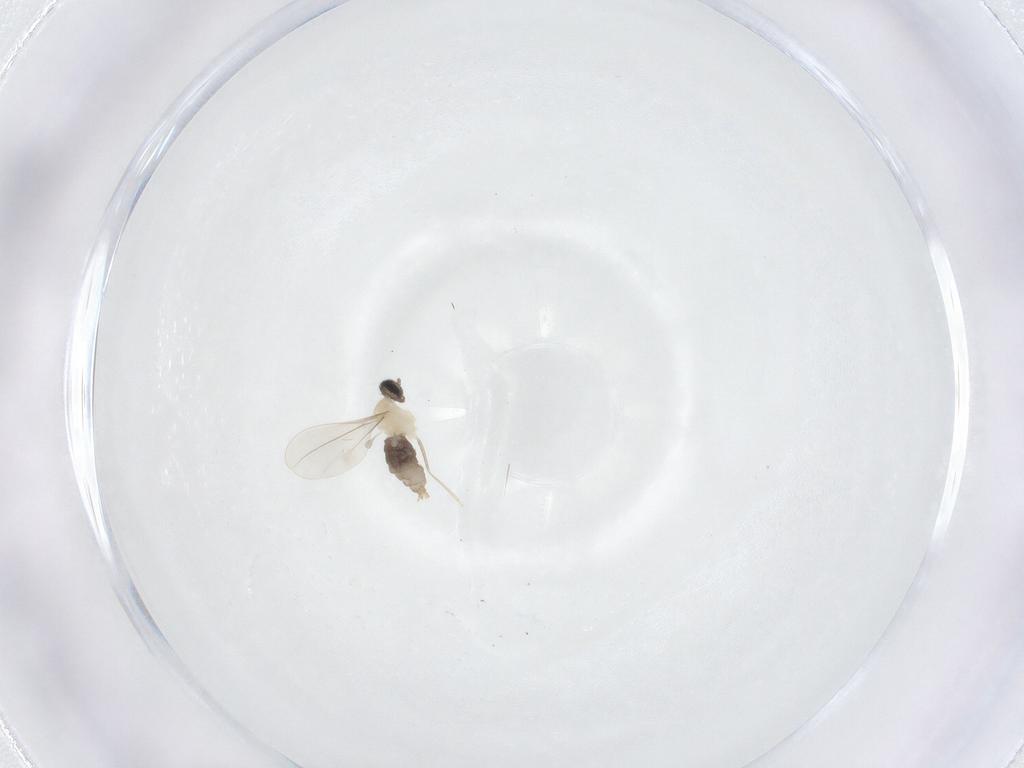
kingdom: Animalia
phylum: Arthropoda
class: Insecta
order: Diptera
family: Cecidomyiidae
